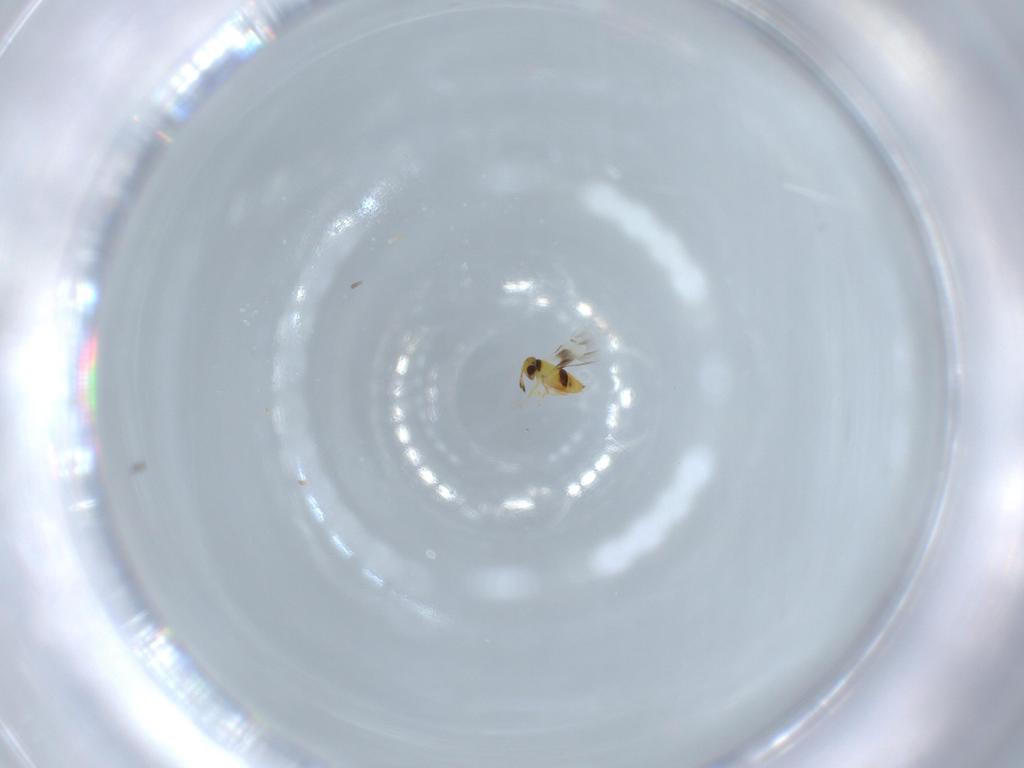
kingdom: Animalia
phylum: Arthropoda
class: Insecta
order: Hymenoptera
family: Signiphoridae
